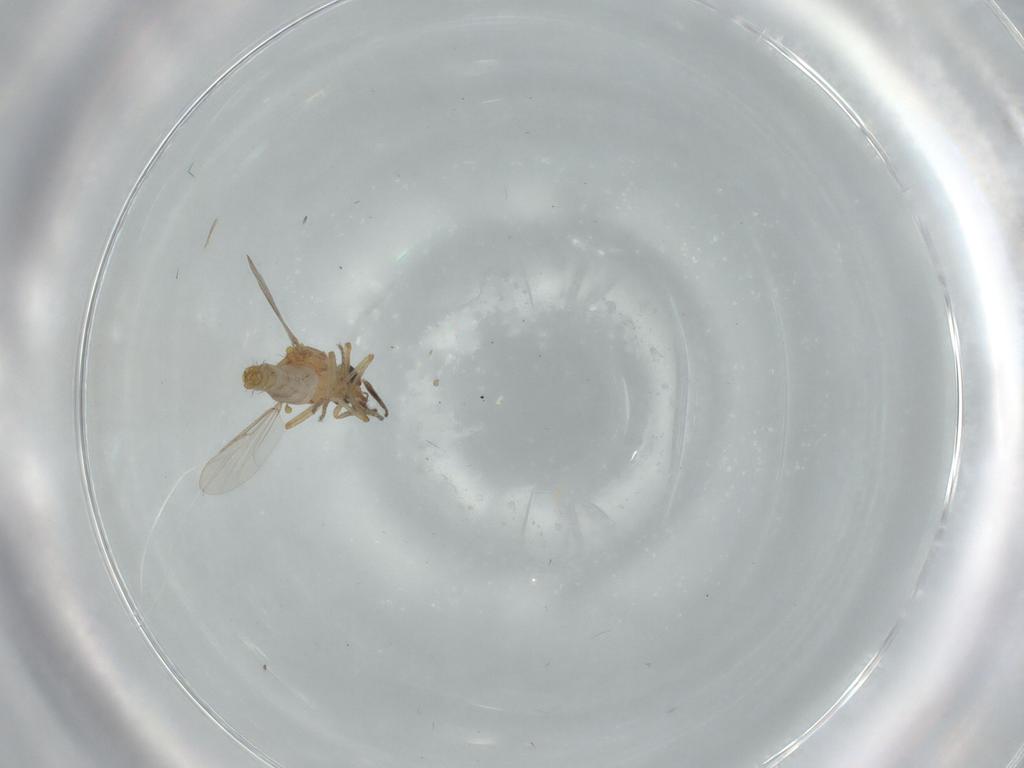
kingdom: Animalia
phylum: Arthropoda
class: Insecta
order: Diptera
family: Ceratopogonidae
